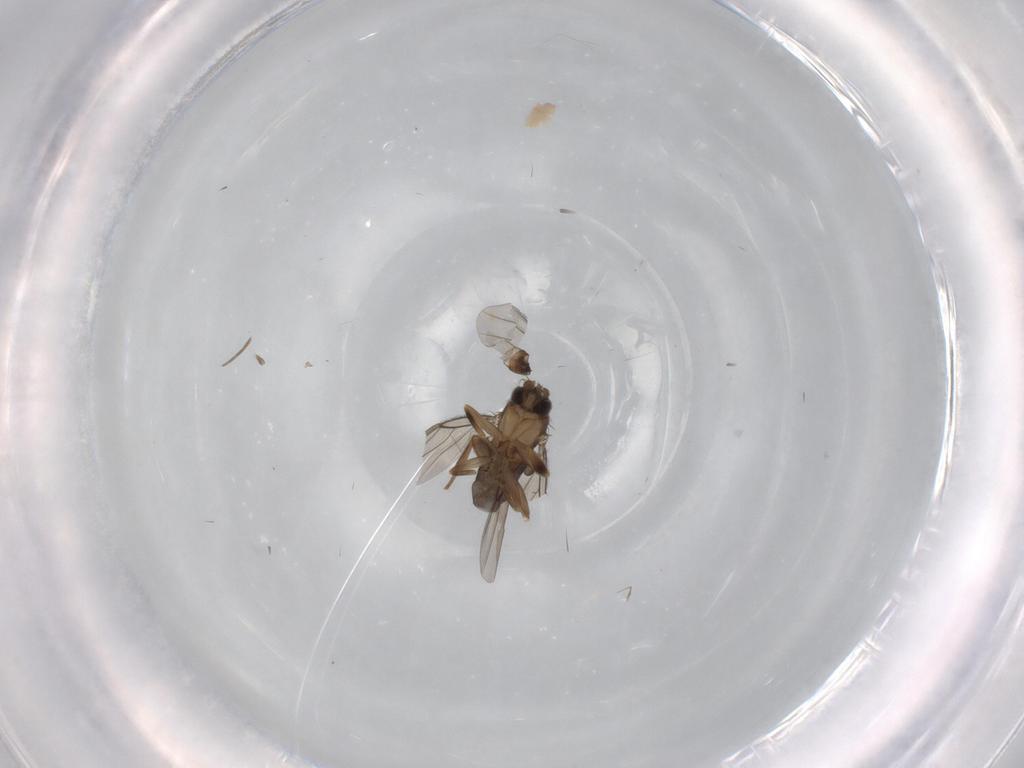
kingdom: Animalia
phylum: Arthropoda
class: Insecta
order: Diptera
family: Phoridae
